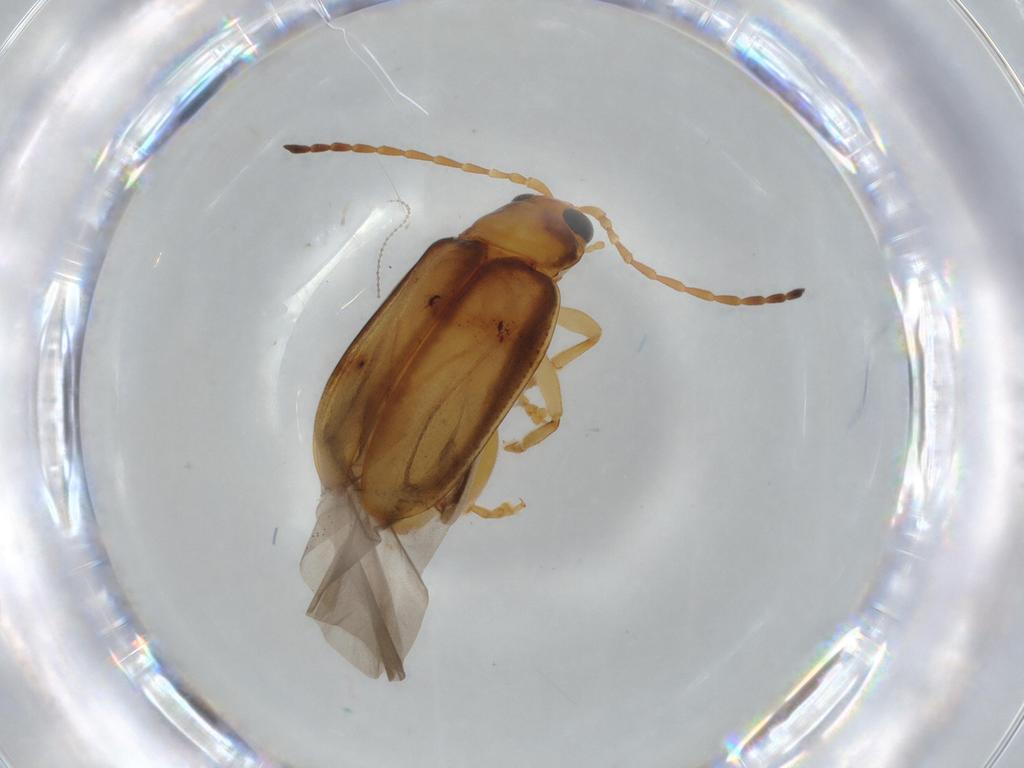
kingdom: Animalia
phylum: Arthropoda
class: Insecta
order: Coleoptera
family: Chrysomelidae
